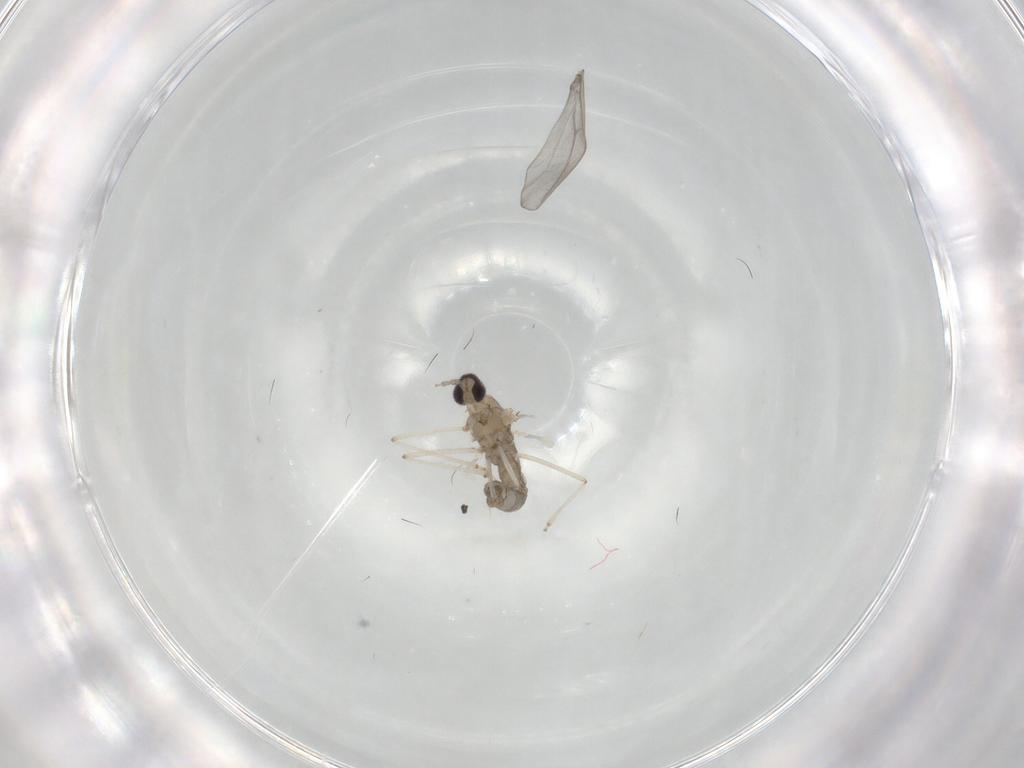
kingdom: Animalia
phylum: Arthropoda
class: Insecta
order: Diptera
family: Cecidomyiidae
